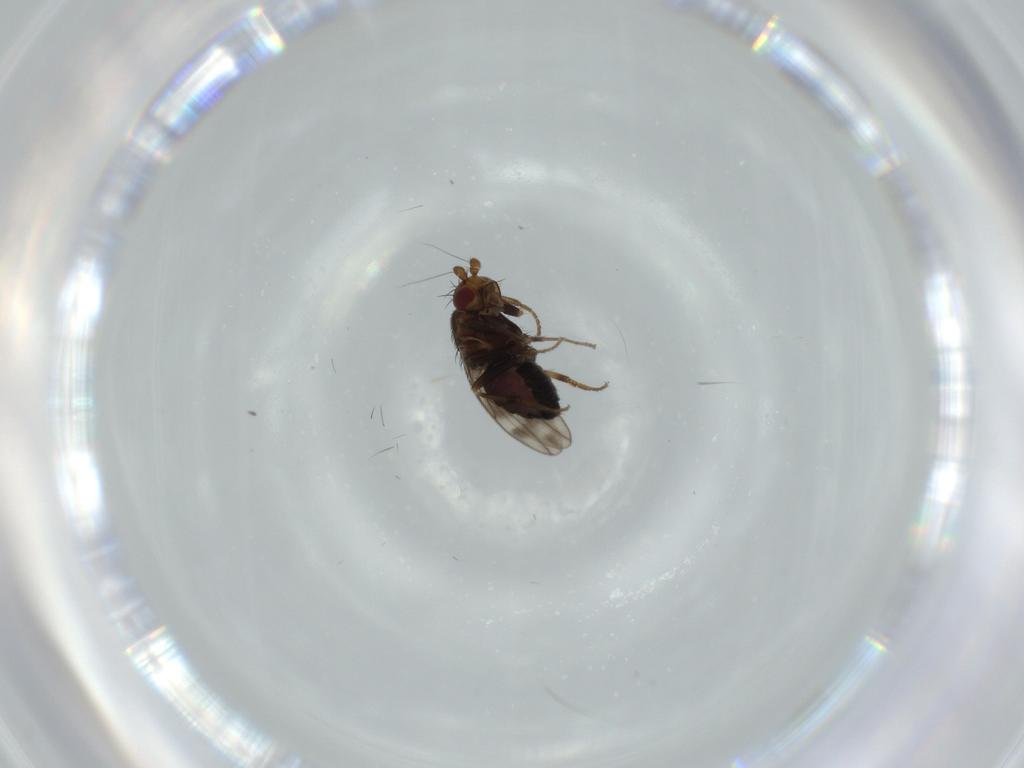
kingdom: Animalia
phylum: Arthropoda
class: Insecta
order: Diptera
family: Sphaeroceridae
